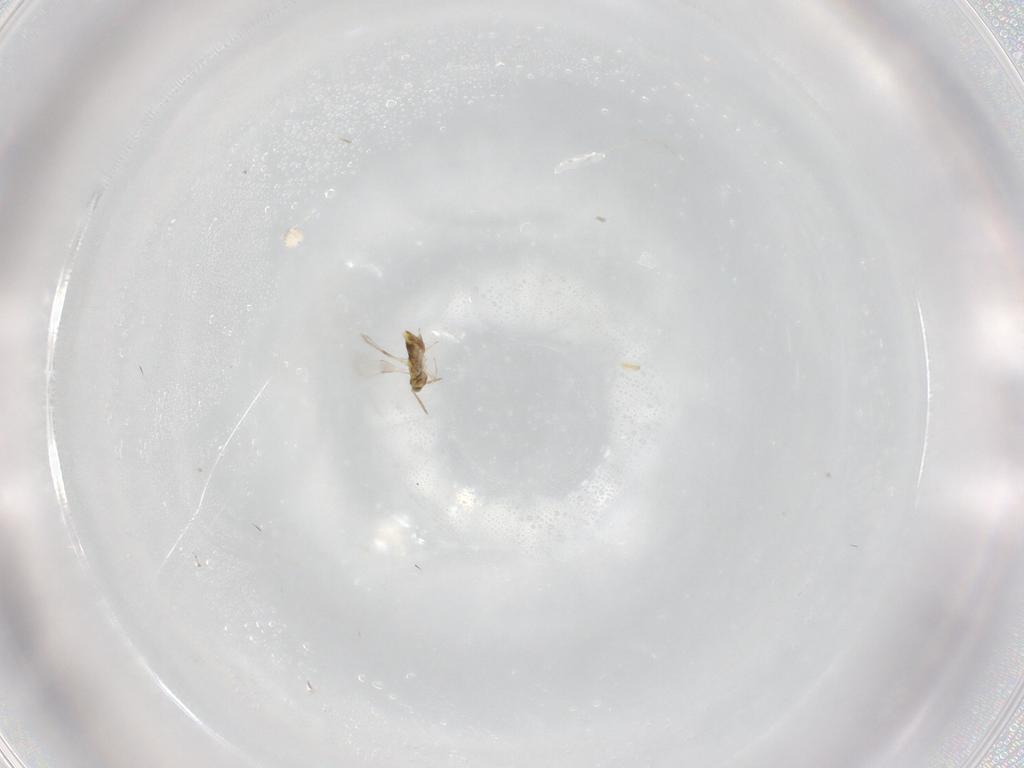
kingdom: Animalia
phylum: Arthropoda
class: Insecta
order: Hymenoptera
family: Aphelinidae
